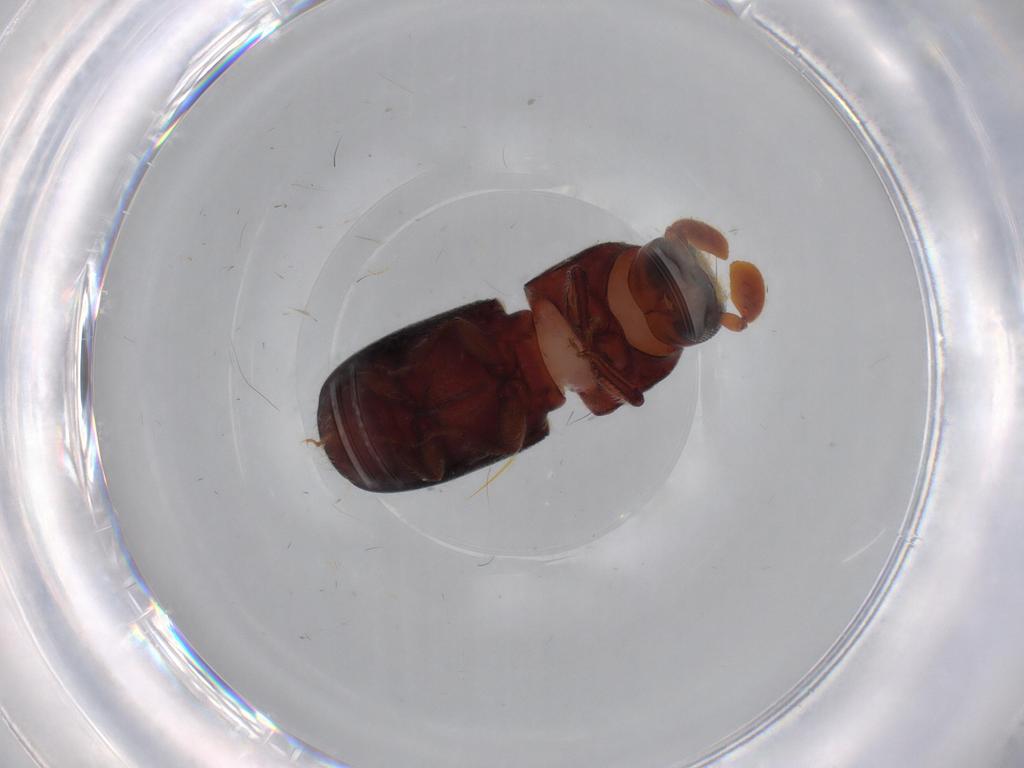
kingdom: Animalia
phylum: Arthropoda
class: Insecta
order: Coleoptera
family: Curculionidae
